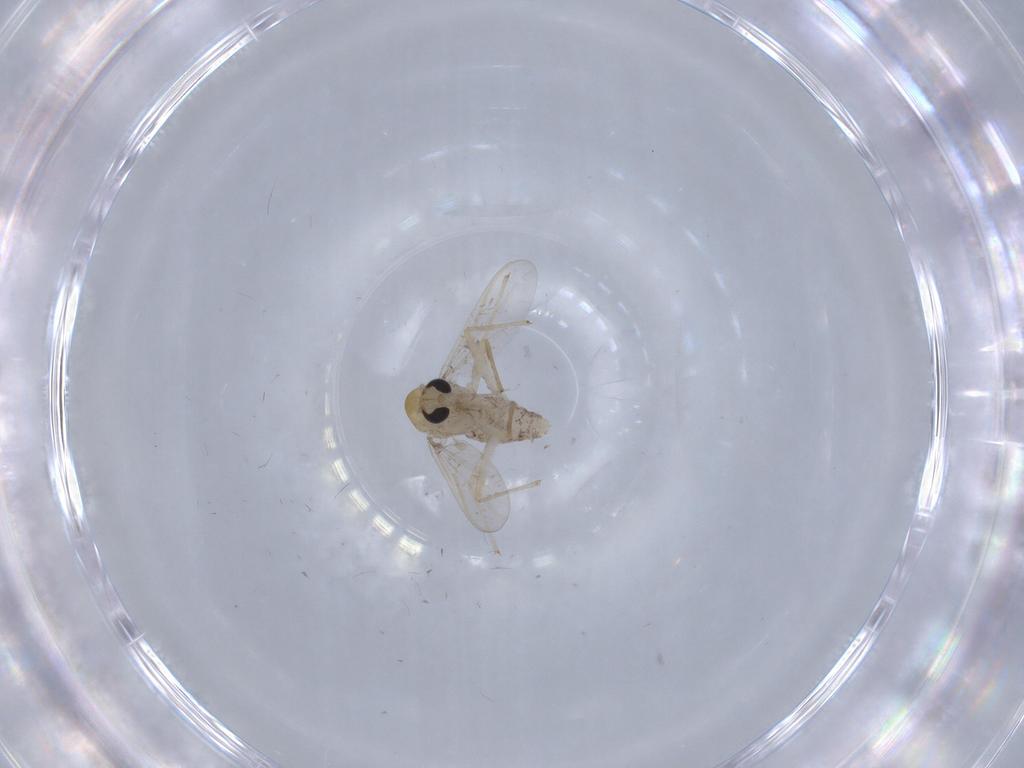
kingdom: Animalia
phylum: Arthropoda
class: Insecta
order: Diptera
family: Chironomidae
